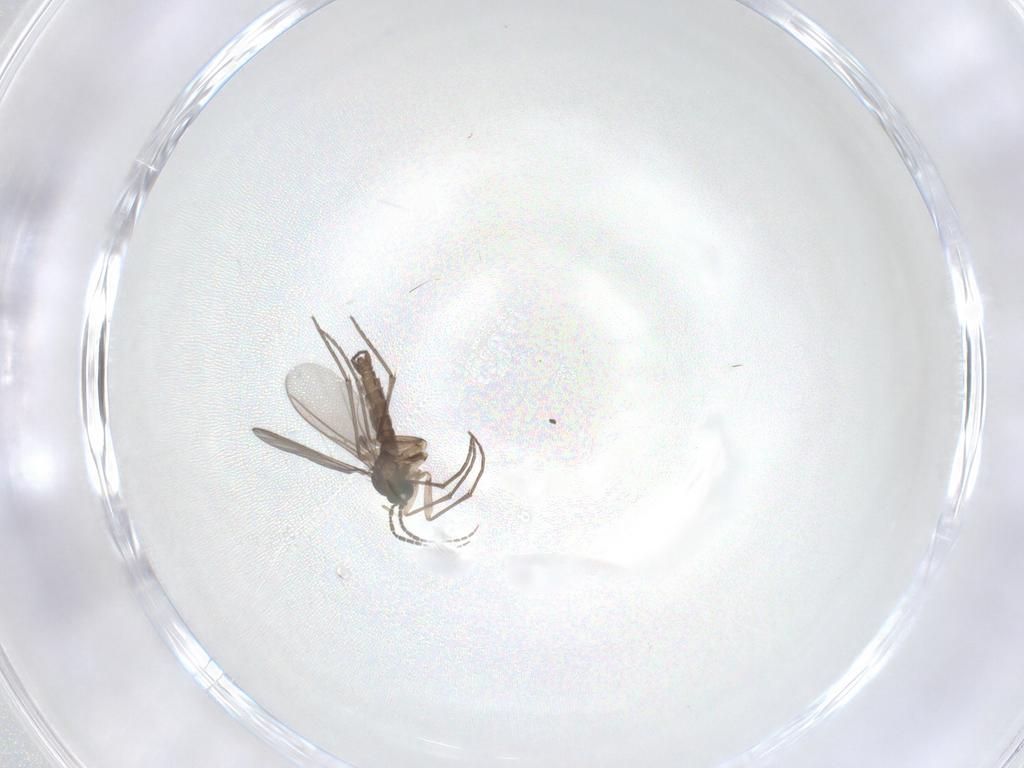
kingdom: Animalia
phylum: Arthropoda
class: Insecta
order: Diptera
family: Sciaridae
